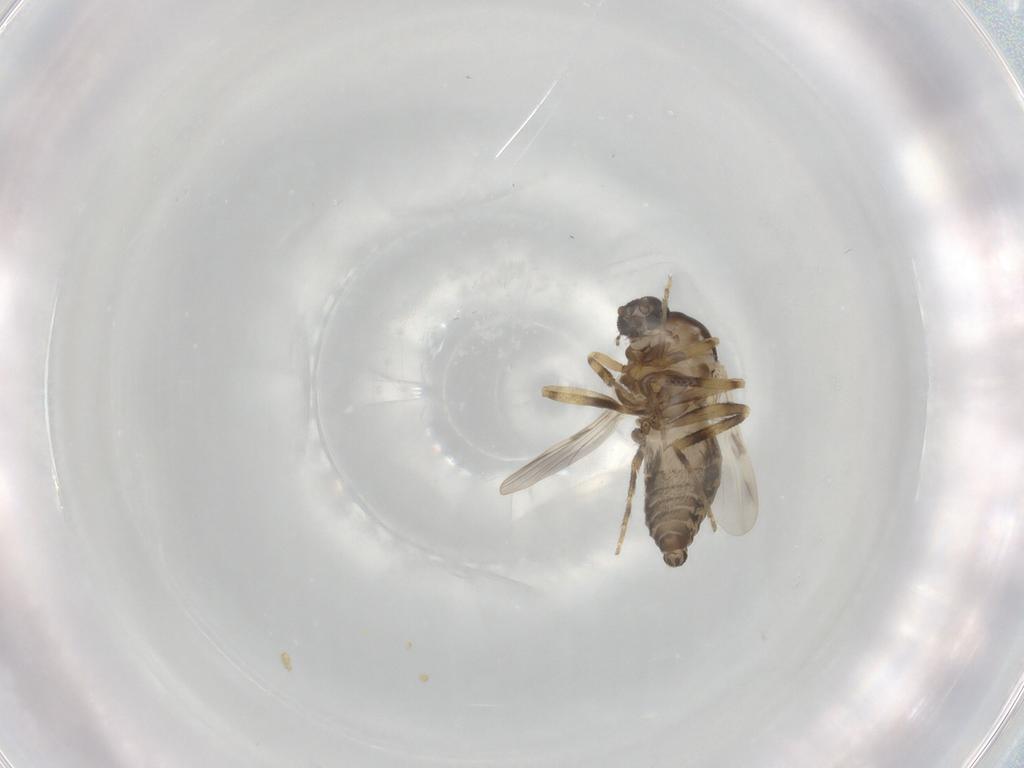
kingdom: Animalia
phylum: Arthropoda
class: Insecta
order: Diptera
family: Ceratopogonidae
